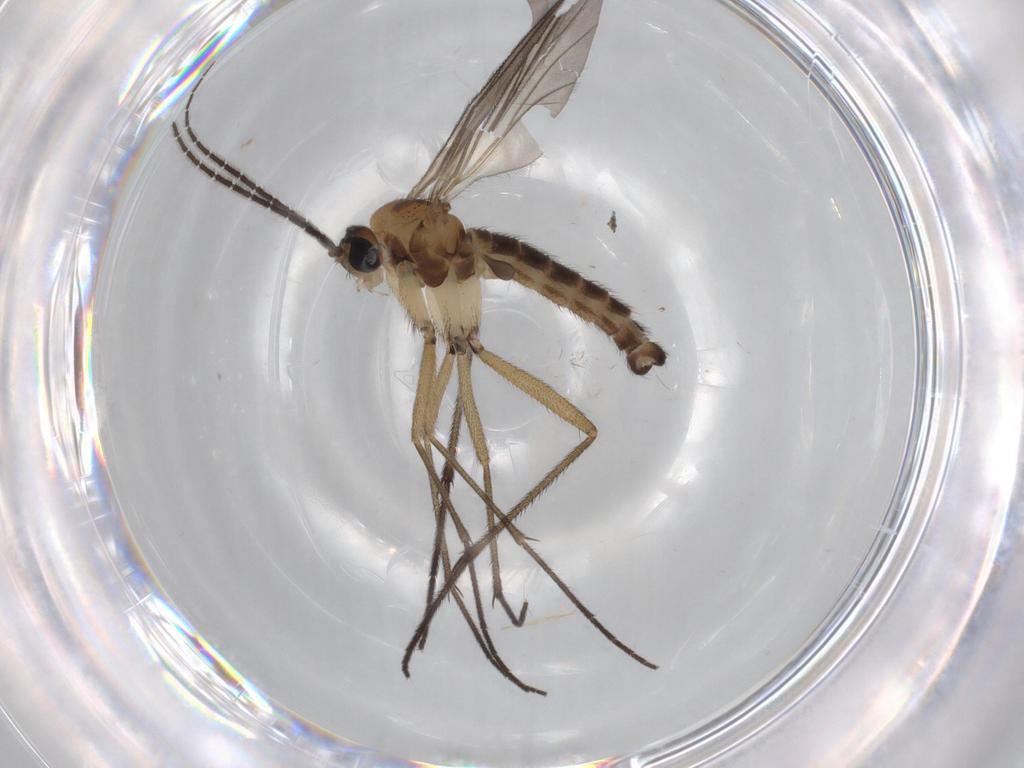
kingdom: Animalia
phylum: Arthropoda
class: Insecta
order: Diptera
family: Sciaridae
